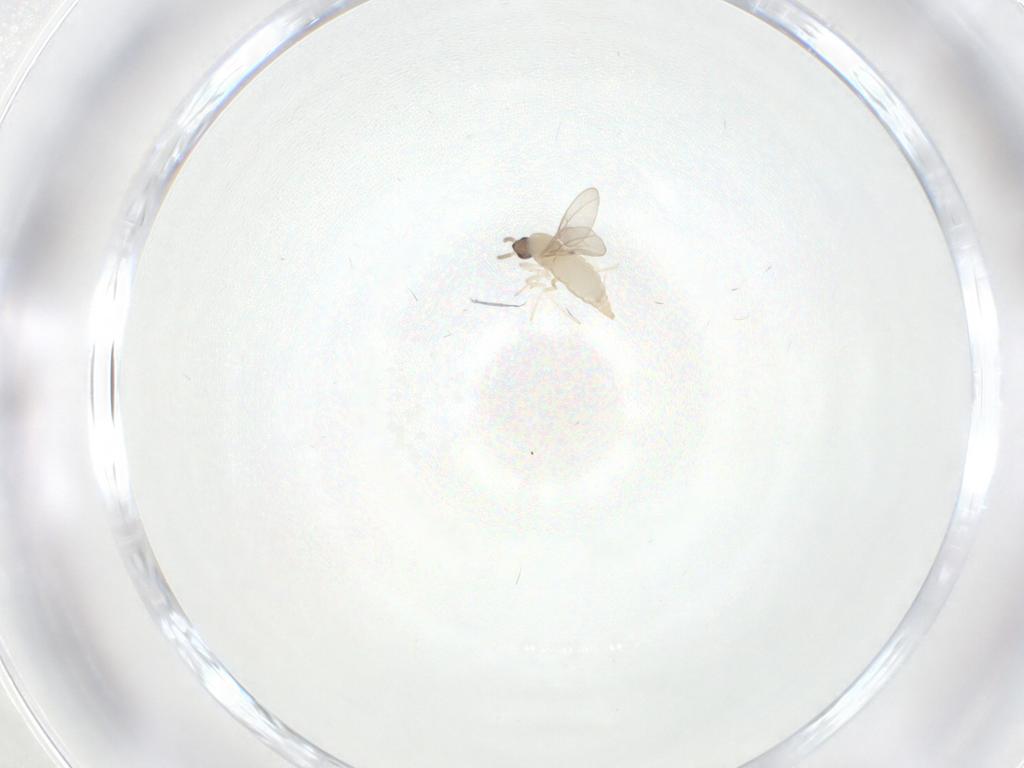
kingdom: Animalia
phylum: Arthropoda
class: Insecta
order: Diptera
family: Cecidomyiidae
